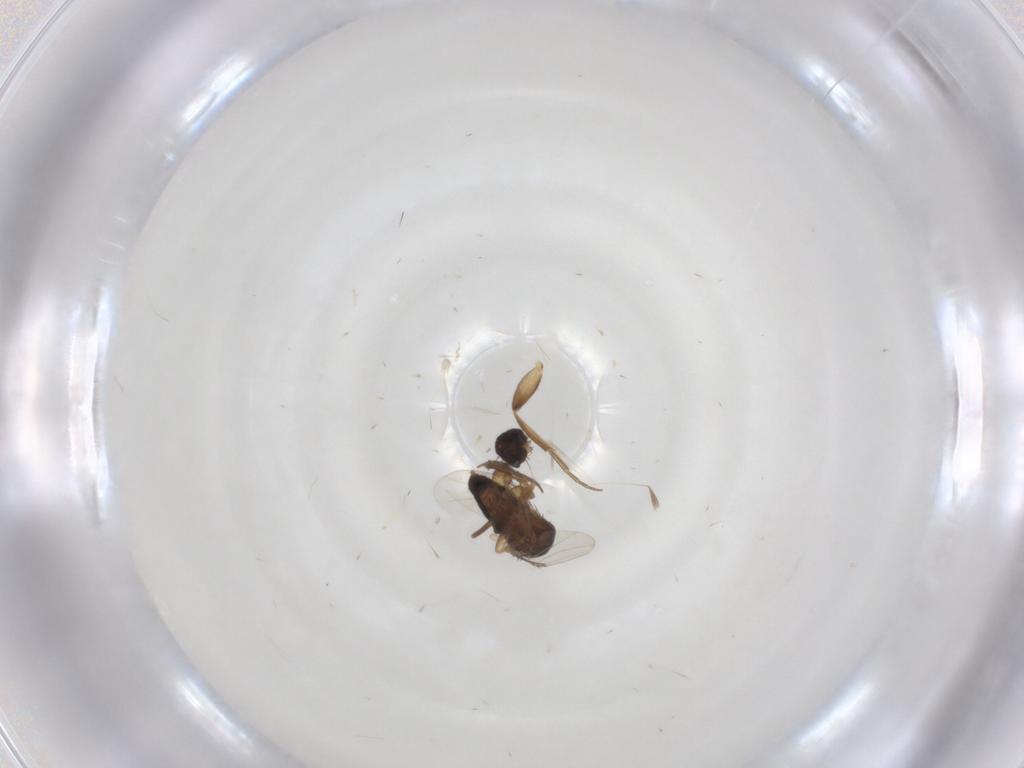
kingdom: Animalia
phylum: Arthropoda
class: Insecta
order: Diptera
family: Phoridae
